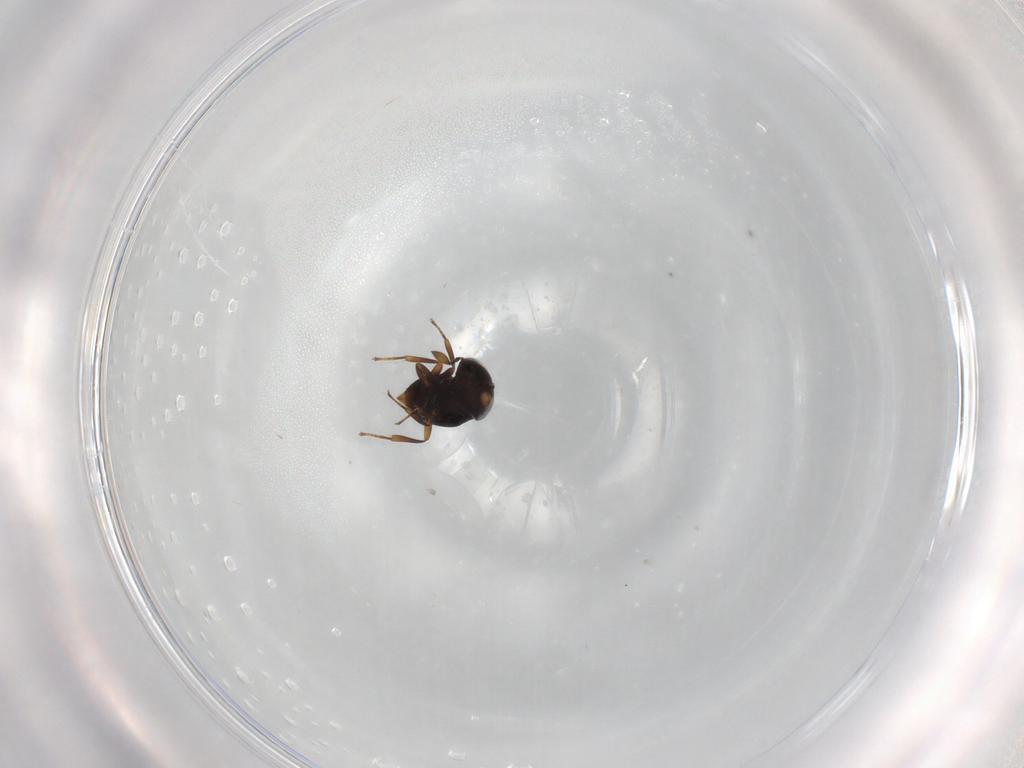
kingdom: Animalia
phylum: Arthropoda
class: Insecta
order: Hymenoptera
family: Scelionidae
